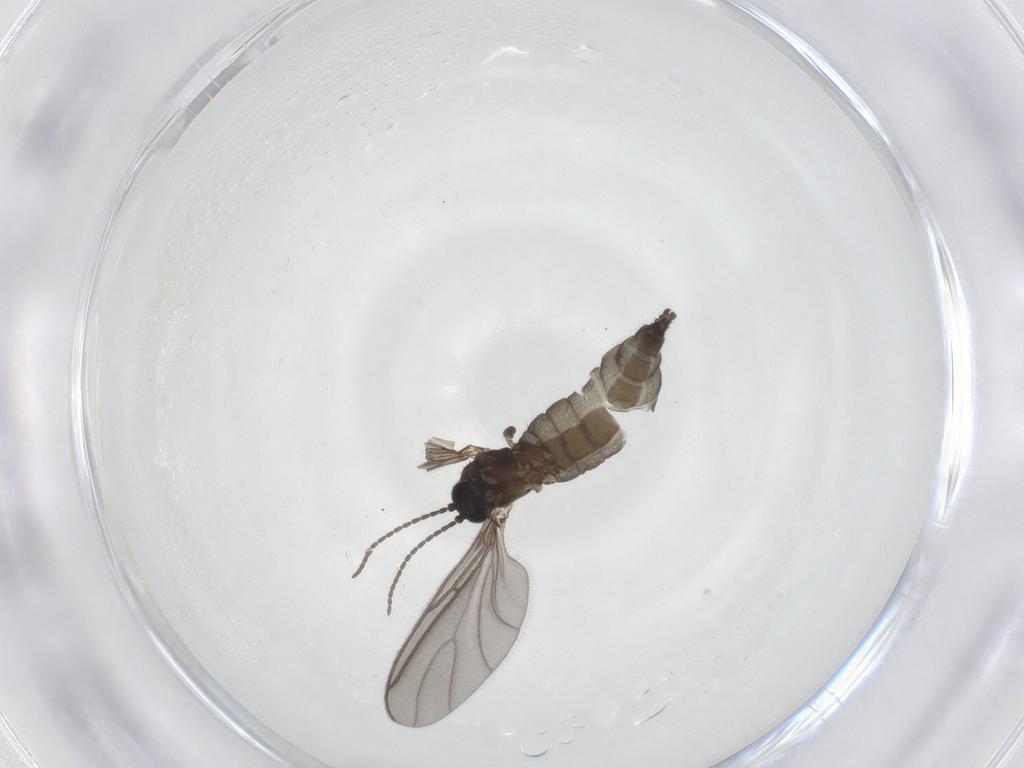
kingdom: Animalia
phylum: Arthropoda
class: Insecta
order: Diptera
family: Sciaridae
